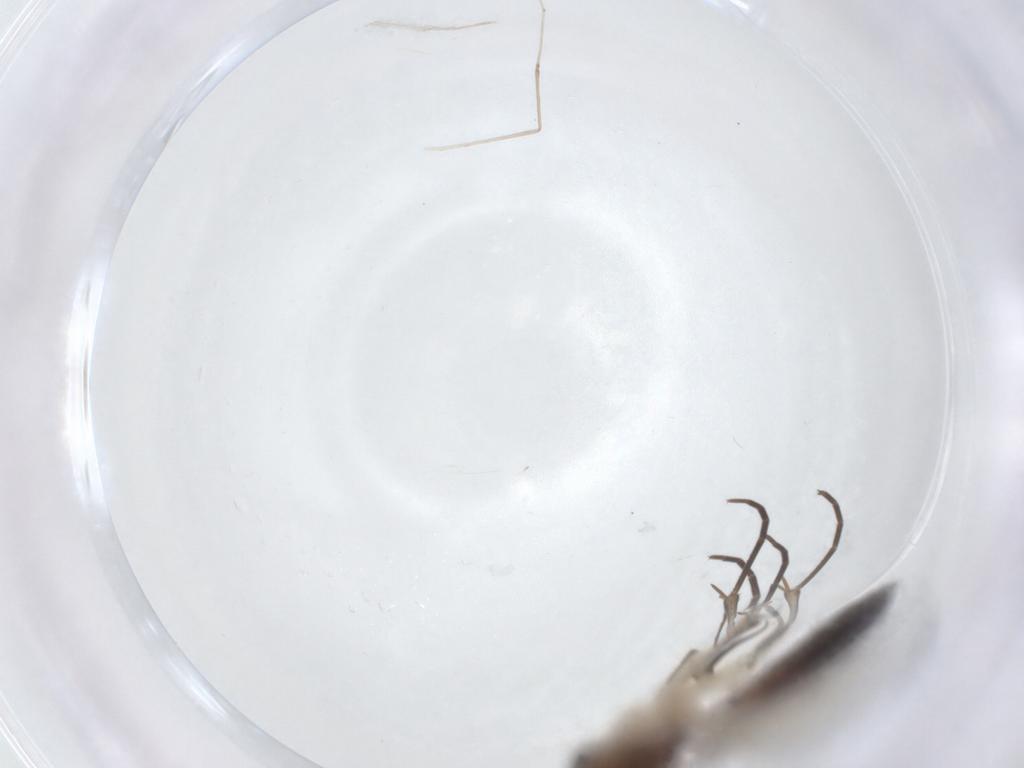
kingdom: Animalia
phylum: Arthropoda
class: Insecta
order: Diptera
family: Mycetophilidae
